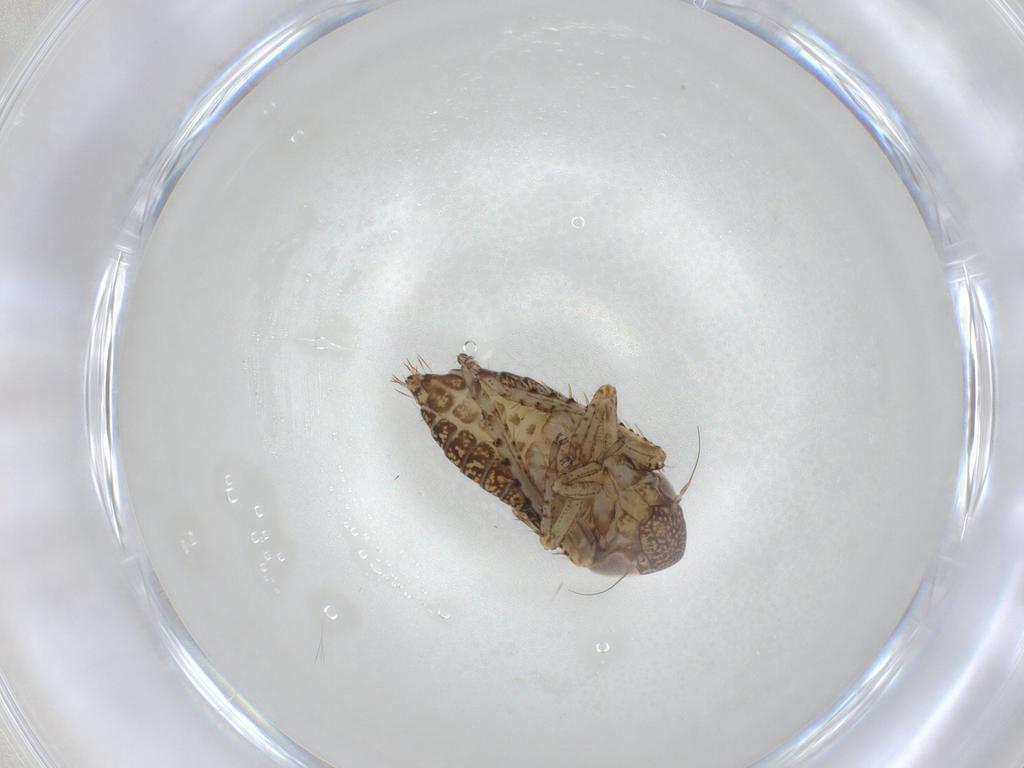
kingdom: Animalia
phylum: Arthropoda
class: Insecta
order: Hemiptera
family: Cicadellidae
